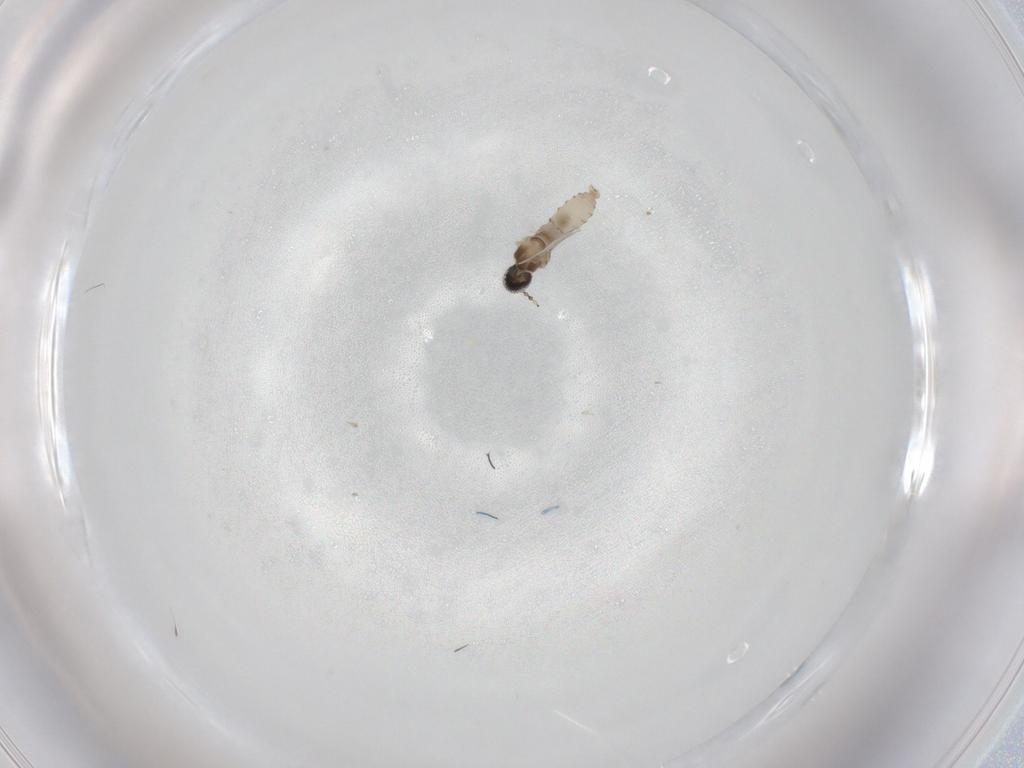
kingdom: Animalia
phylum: Arthropoda
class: Insecta
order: Diptera
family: Cecidomyiidae
